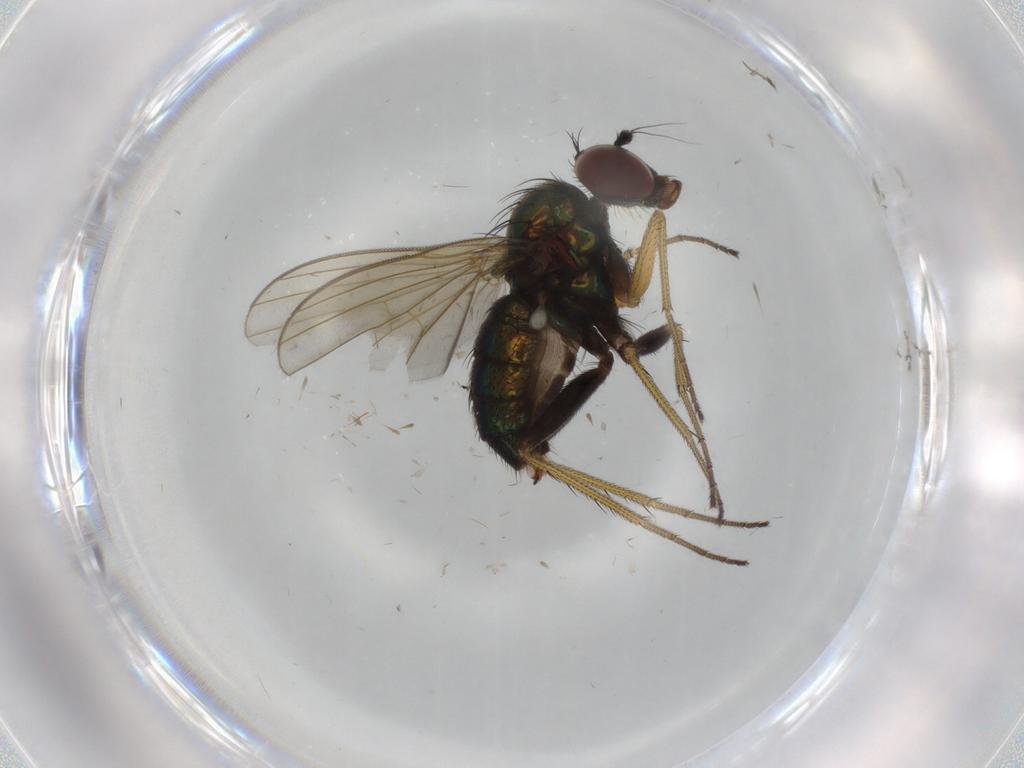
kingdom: Animalia
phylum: Arthropoda
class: Insecta
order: Diptera
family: Dolichopodidae
